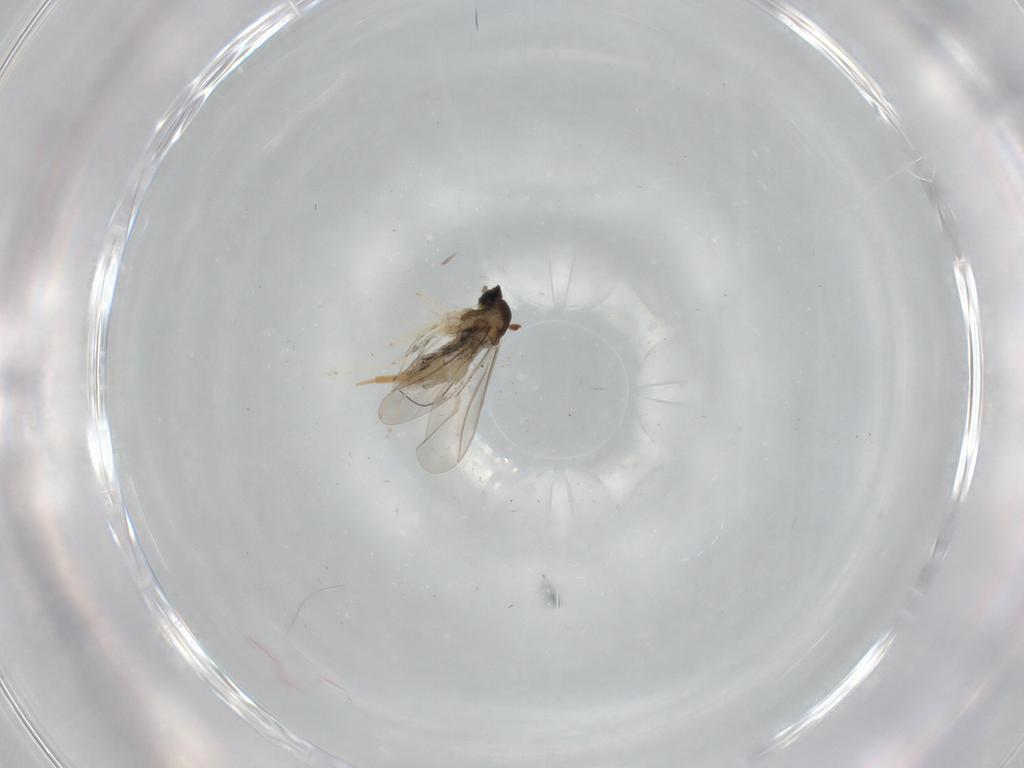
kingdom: Animalia
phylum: Arthropoda
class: Insecta
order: Diptera
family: Cecidomyiidae
